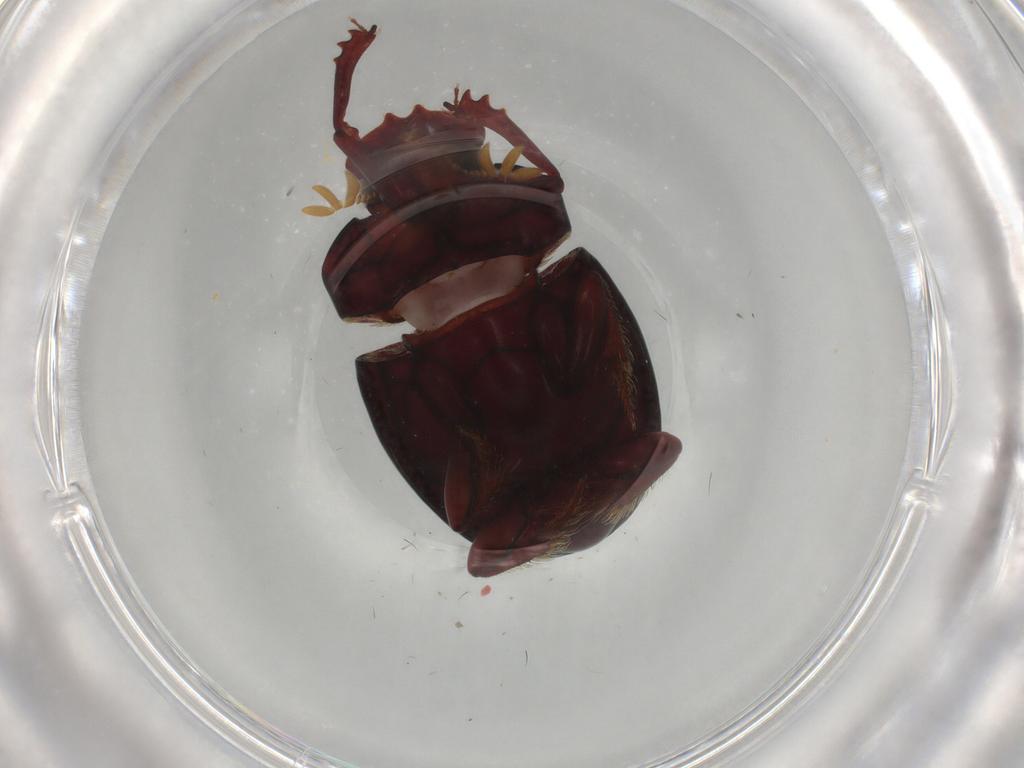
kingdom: Animalia
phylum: Arthropoda
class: Insecta
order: Coleoptera
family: Scarabaeidae
